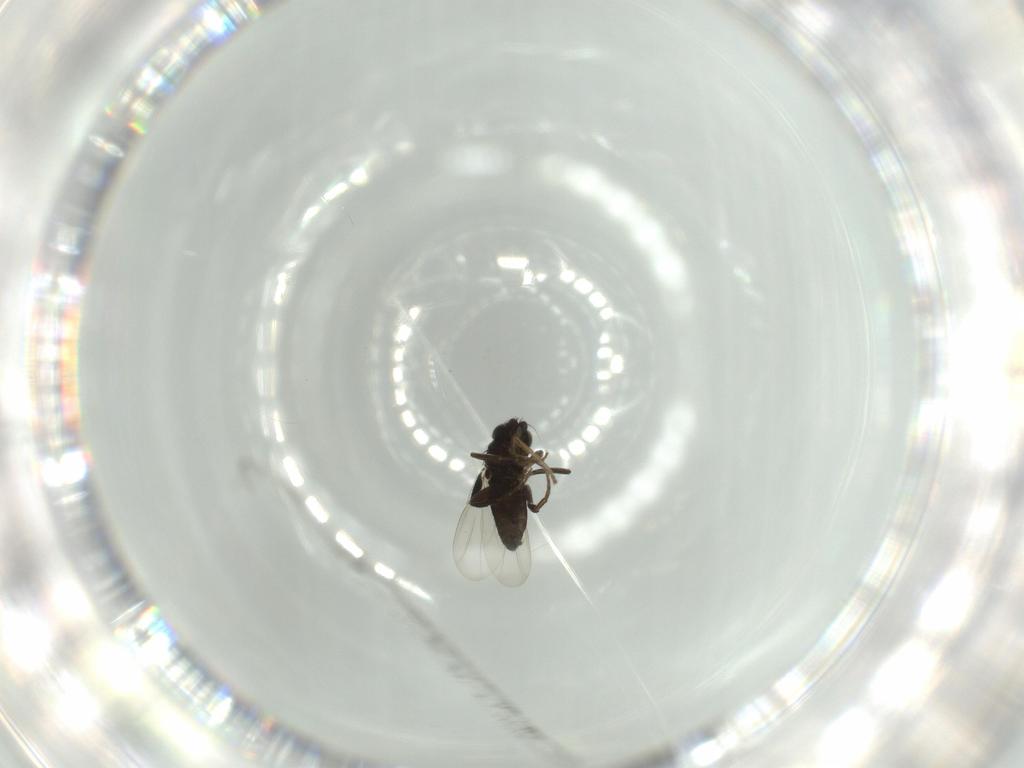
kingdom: Animalia
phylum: Arthropoda
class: Insecta
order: Diptera
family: Phoridae
